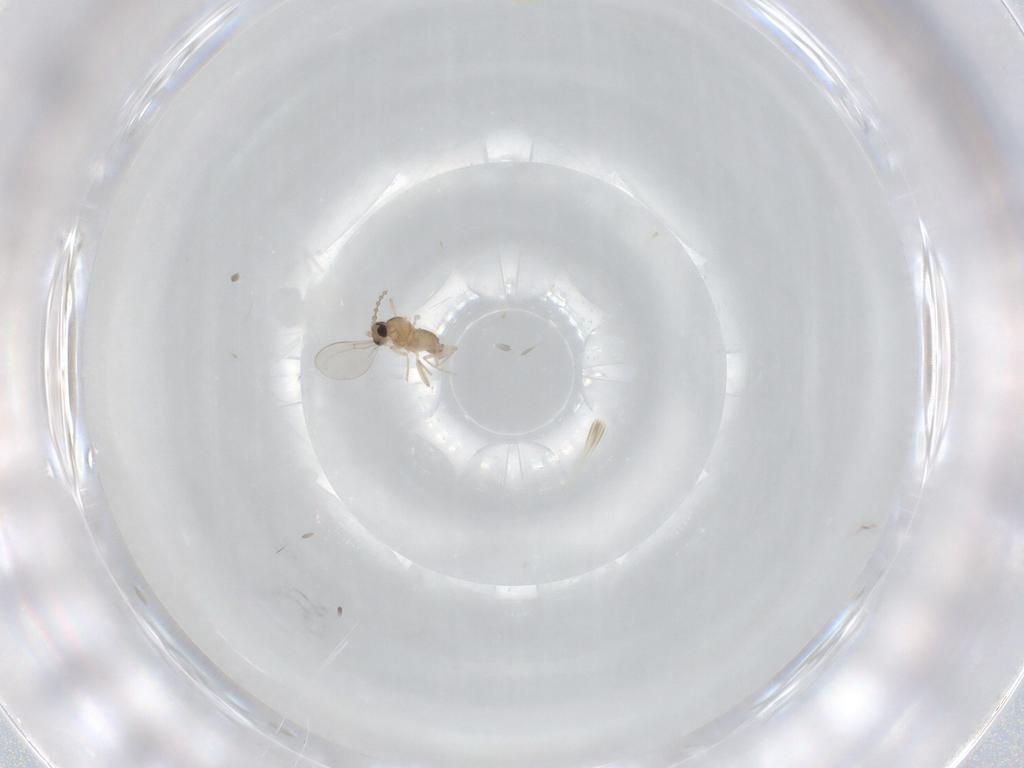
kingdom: Animalia
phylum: Arthropoda
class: Insecta
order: Diptera
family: Cecidomyiidae
